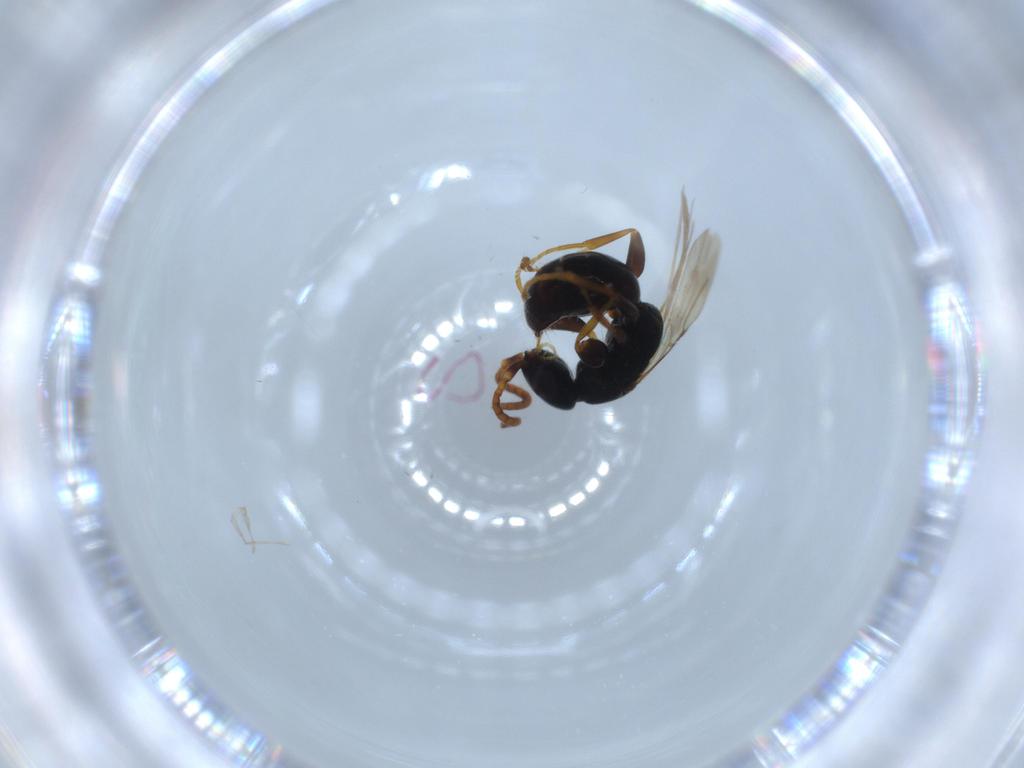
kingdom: Animalia
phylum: Arthropoda
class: Insecta
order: Hymenoptera
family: Bethylidae
